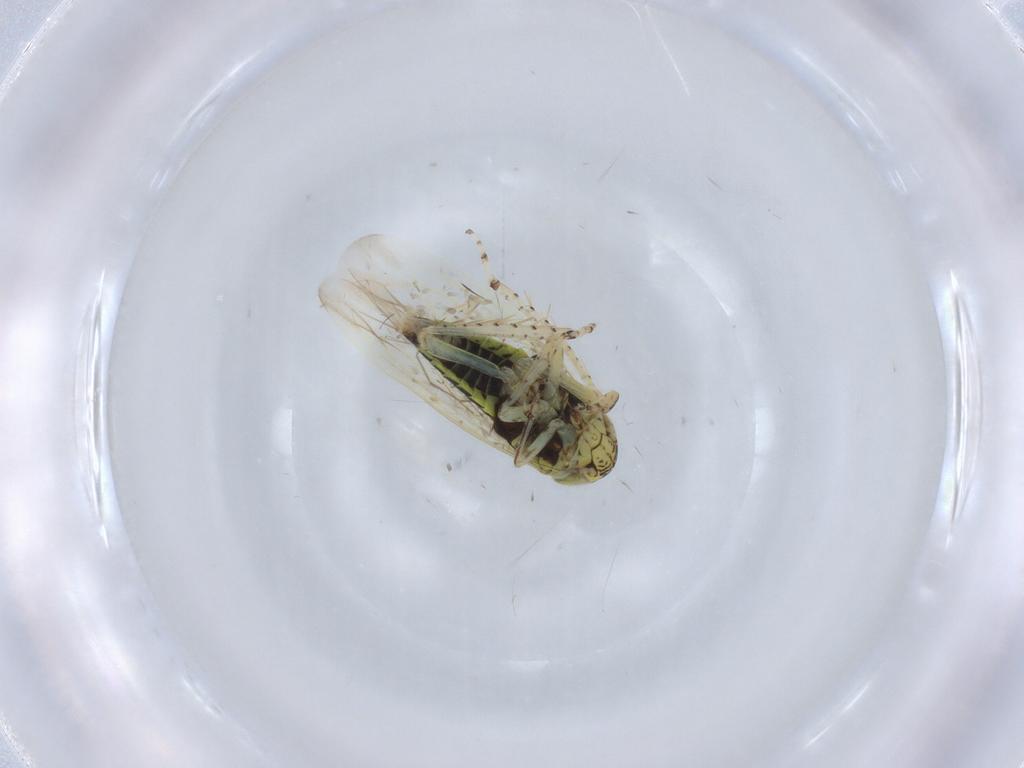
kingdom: Animalia
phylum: Arthropoda
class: Insecta
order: Hemiptera
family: Cicadellidae
